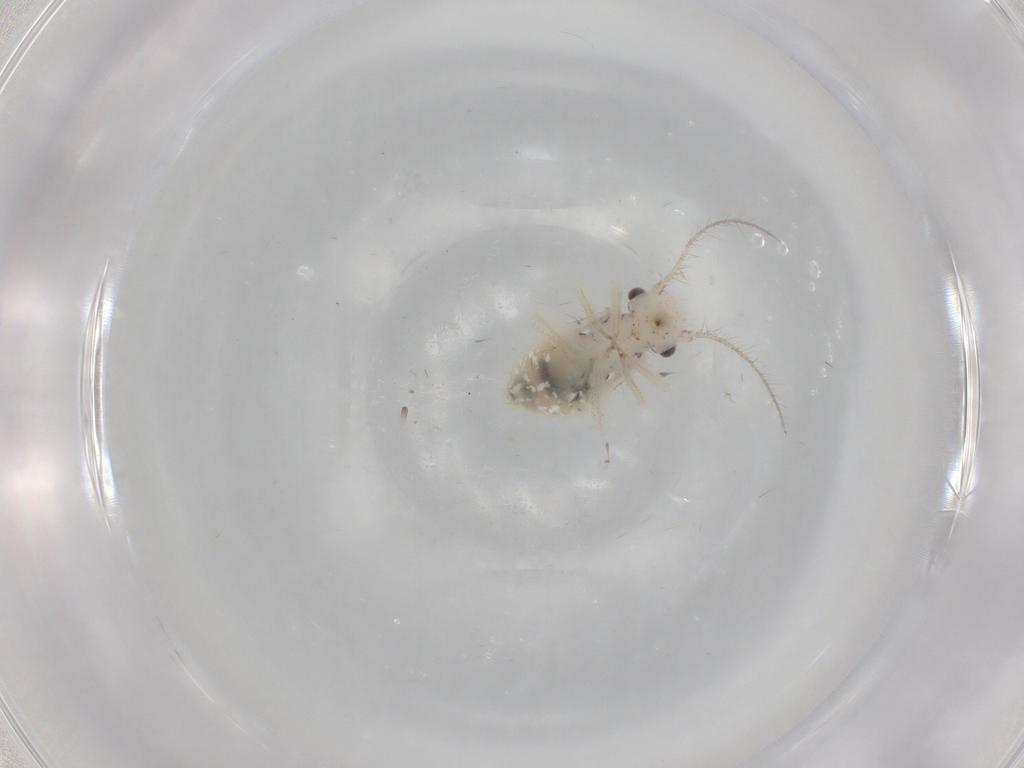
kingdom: Animalia
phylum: Arthropoda
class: Insecta
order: Psocodea
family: Pseudocaeciliidae
